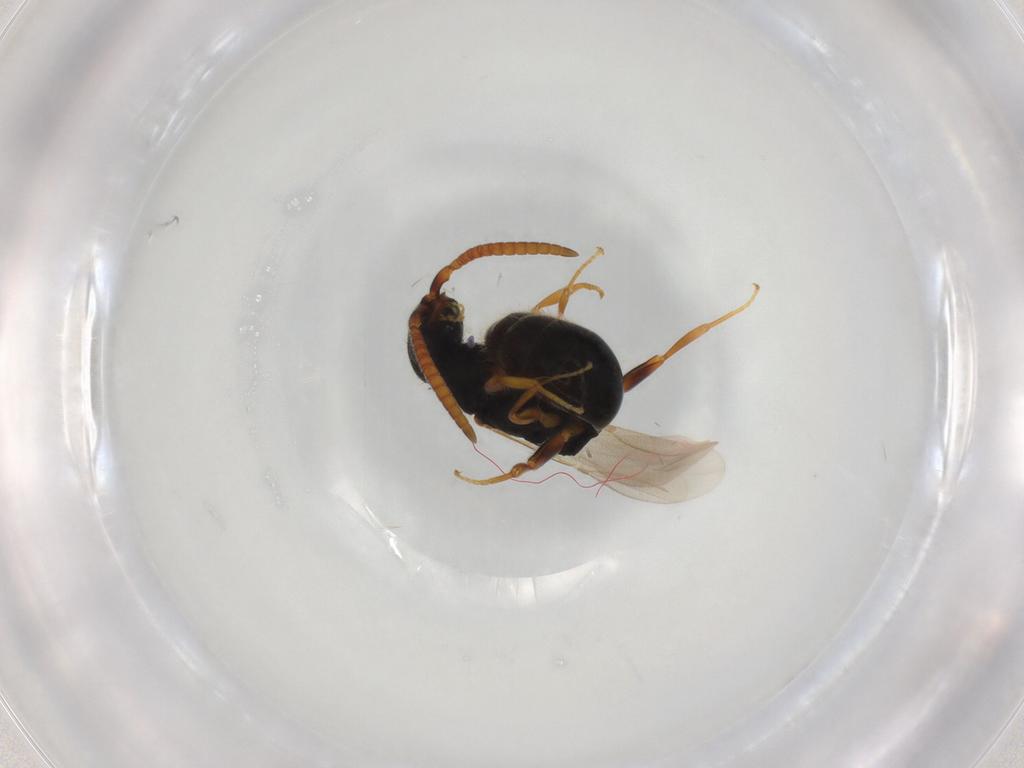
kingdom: Animalia
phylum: Arthropoda
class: Insecta
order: Hymenoptera
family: Bethylidae
